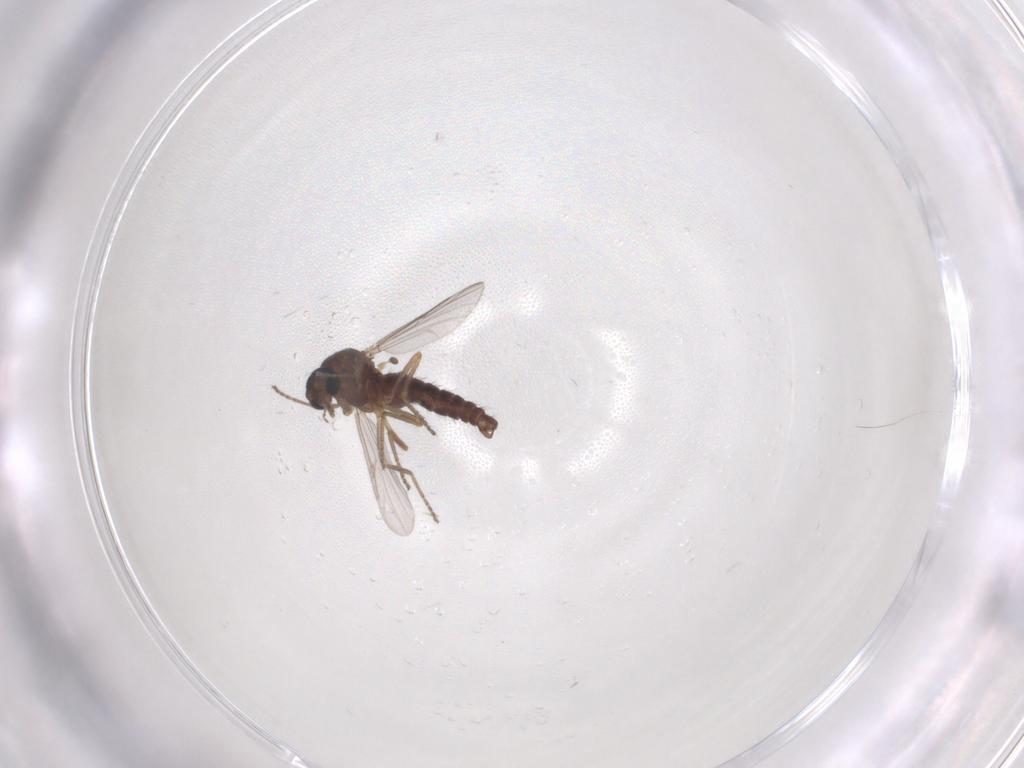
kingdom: Animalia
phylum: Arthropoda
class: Insecta
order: Diptera
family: Ceratopogonidae
